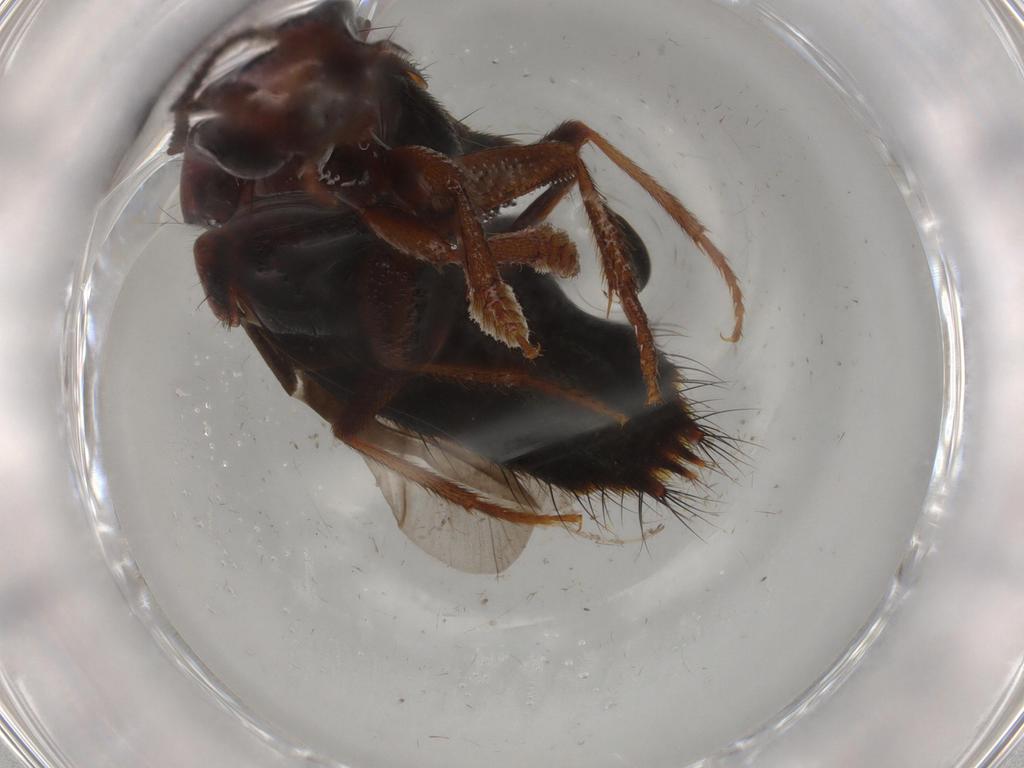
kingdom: Animalia
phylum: Arthropoda
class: Insecta
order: Coleoptera
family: Staphylinidae
